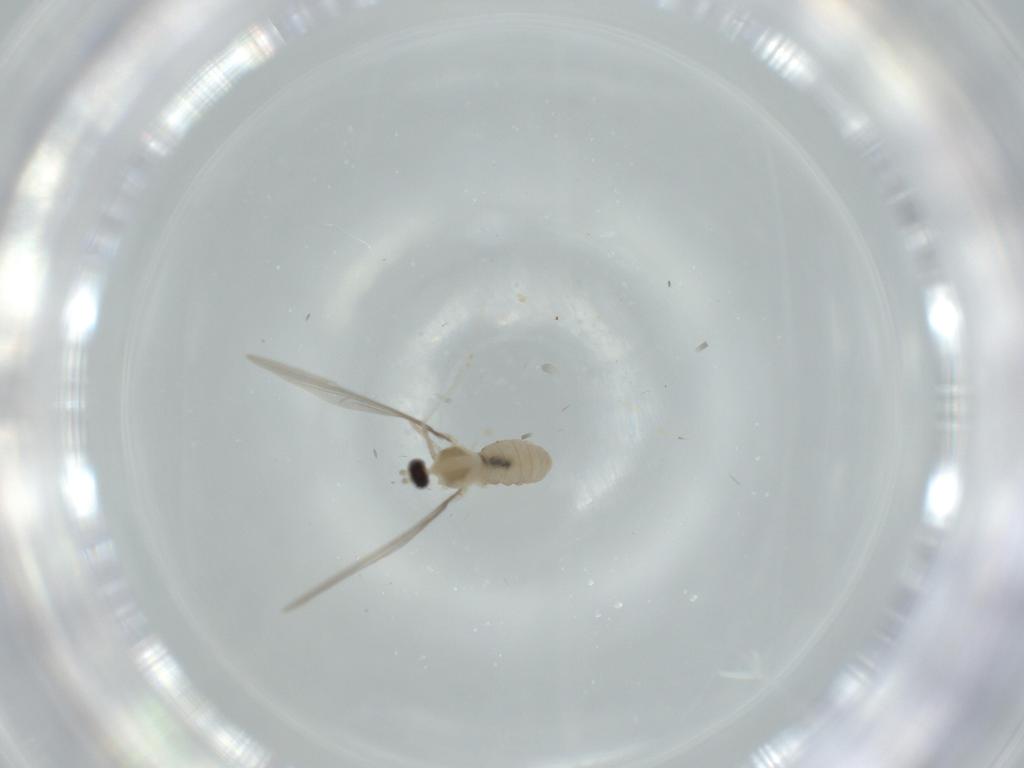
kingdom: Animalia
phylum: Arthropoda
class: Insecta
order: Diptera
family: Cecidomyiidae
